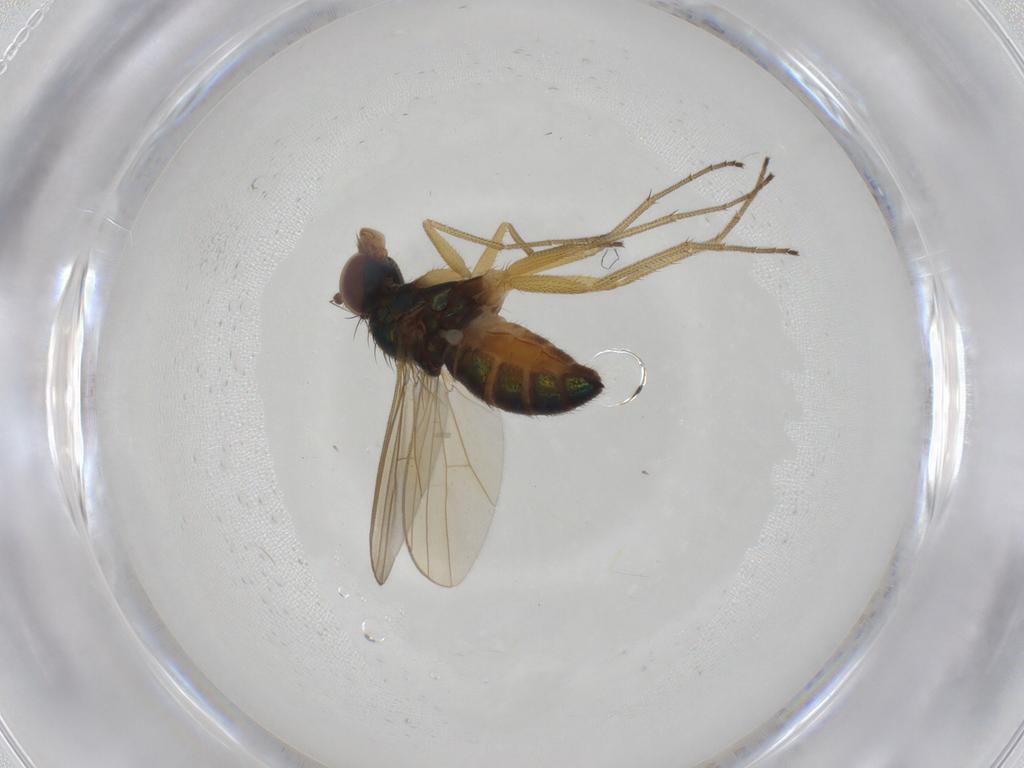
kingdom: Animalia
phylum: Arthropoda
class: Insecta
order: Diptera
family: Dolichopodidae
